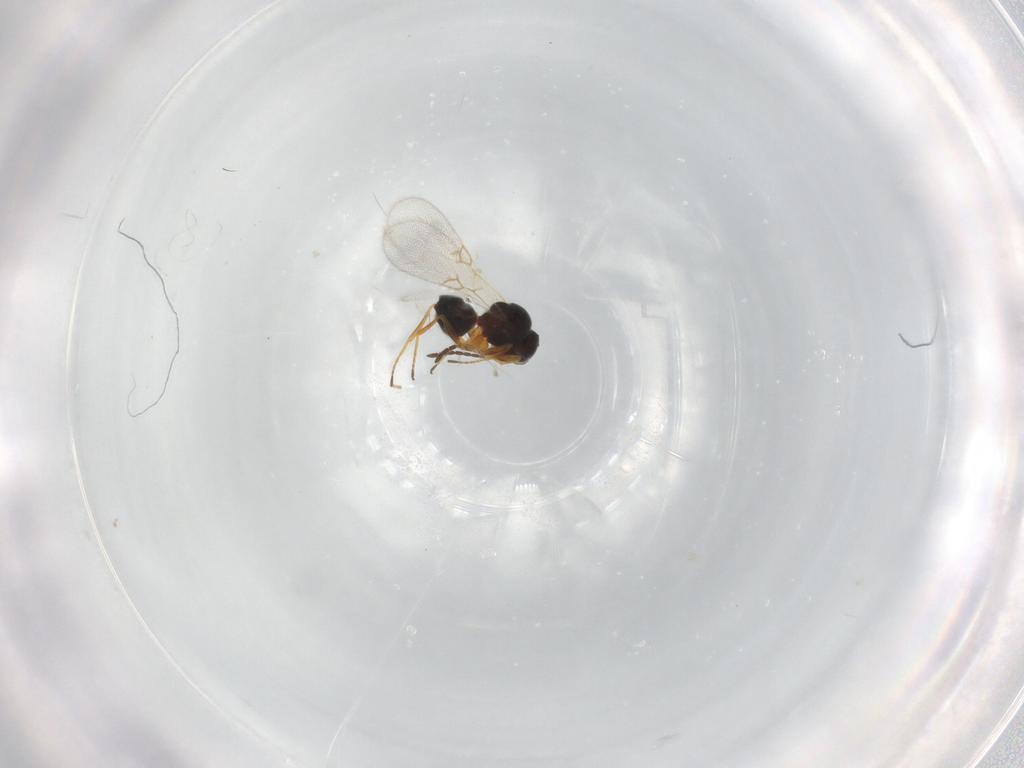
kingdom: Animalia
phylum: Arthropoda
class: Insecta
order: Hymenoptera
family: Figitidae
